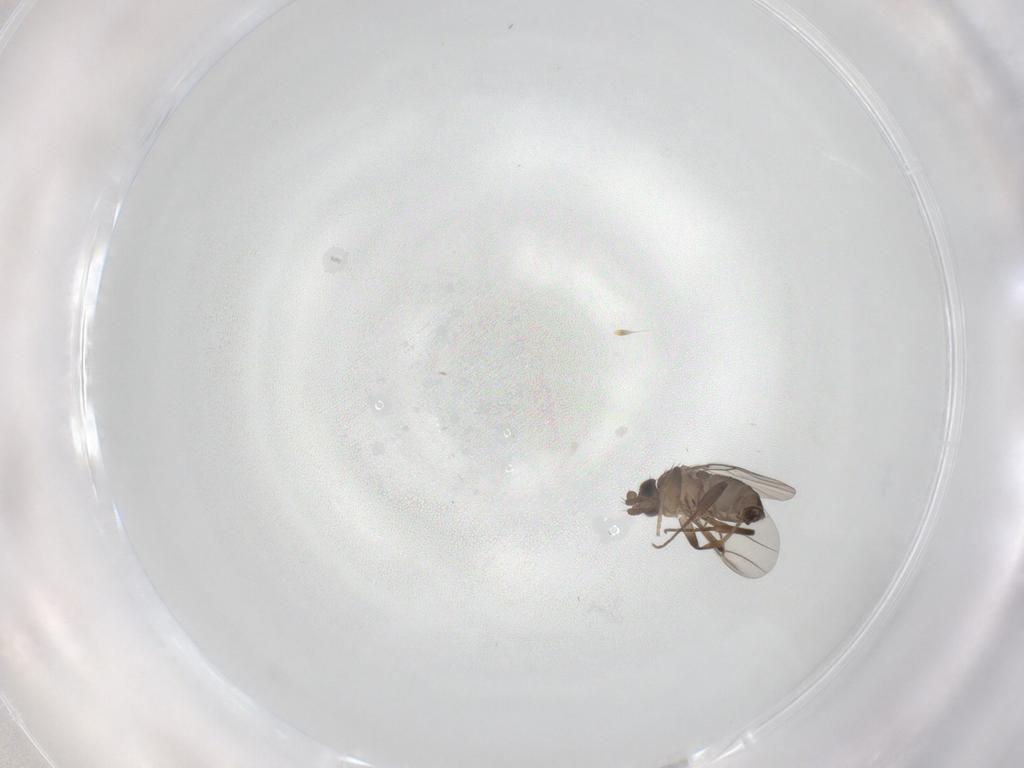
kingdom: Animalia
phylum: Arthropoda
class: Insecta
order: Diptera
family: Phoridae
